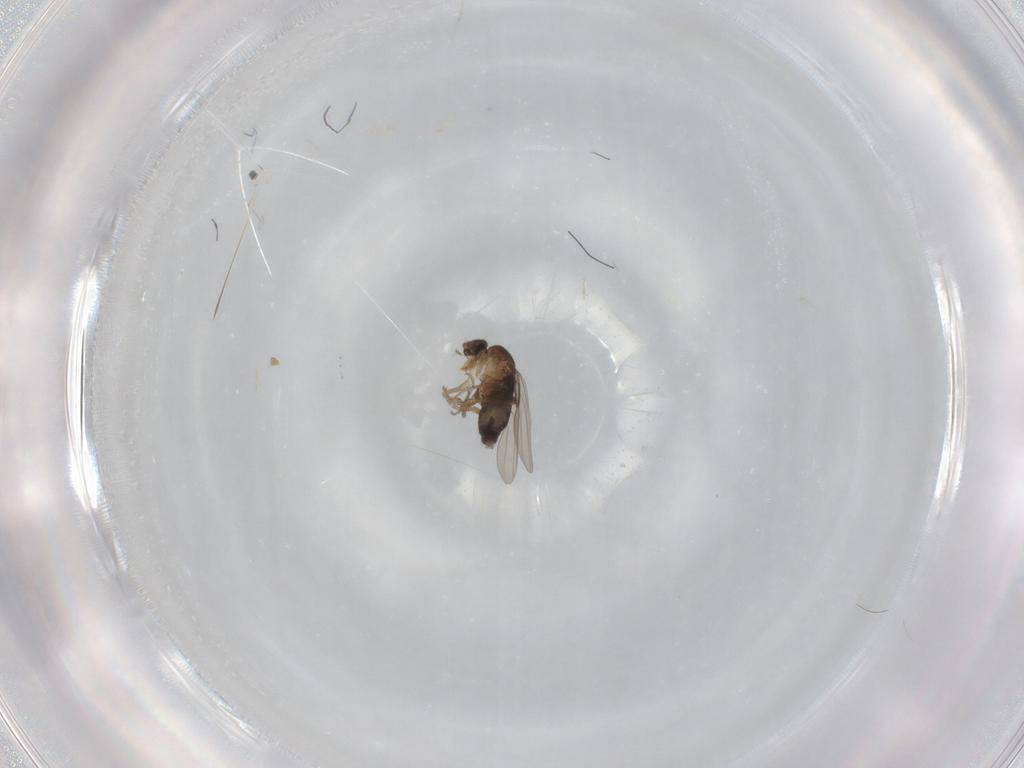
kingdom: Animalia
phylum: Arthropoda
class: Insecta
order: Diptera
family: Phoridae
